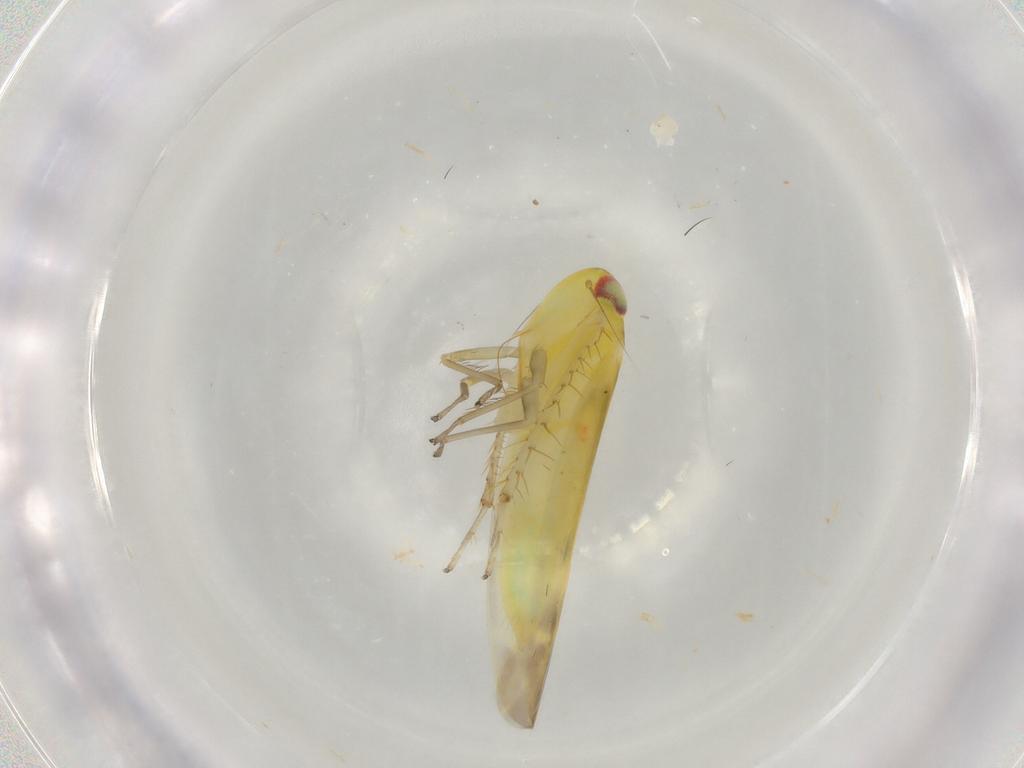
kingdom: Animalia
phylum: Arthropoda
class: Insecta
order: Hemiptera
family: Cicadellidae
